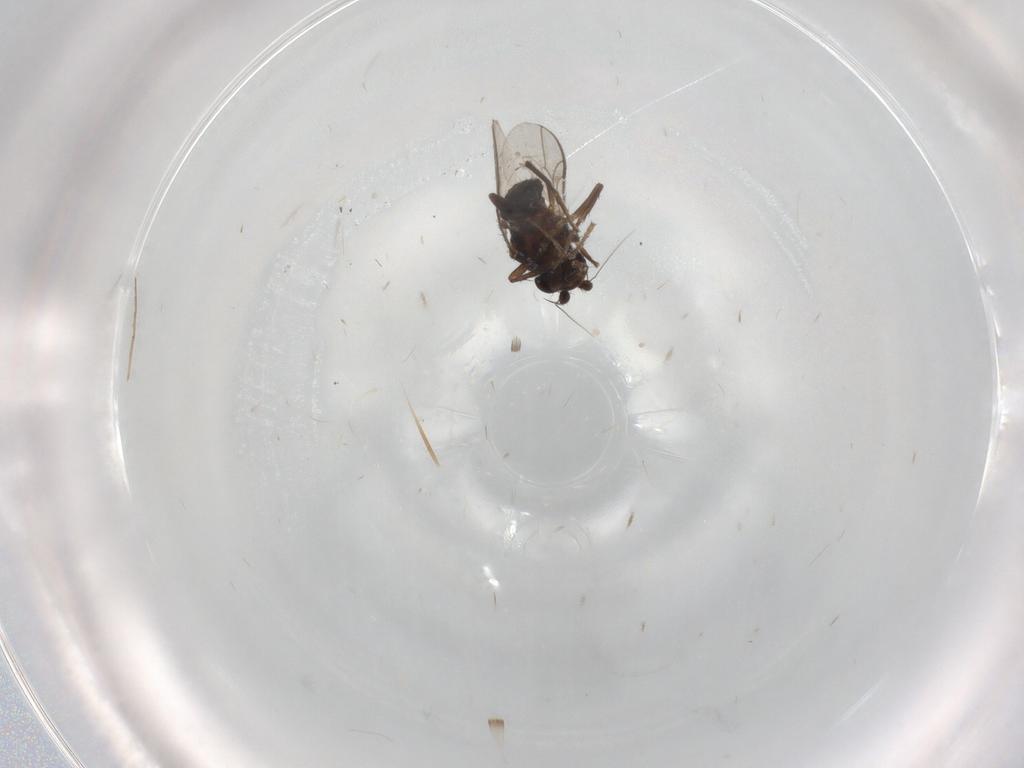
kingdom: Animalia
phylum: Arthropoda
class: Insecta
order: Diptera
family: Sphaeroceridae
